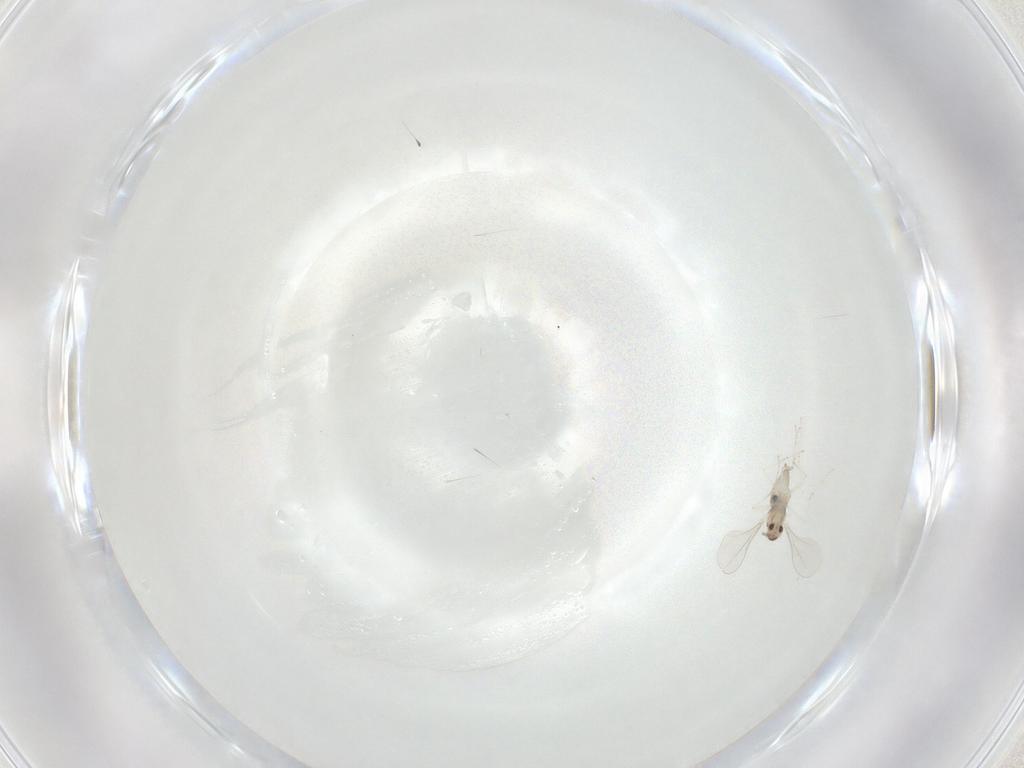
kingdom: Animalia
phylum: Arthropoda
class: Insecta
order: Diptera
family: Cecidomyiidae
